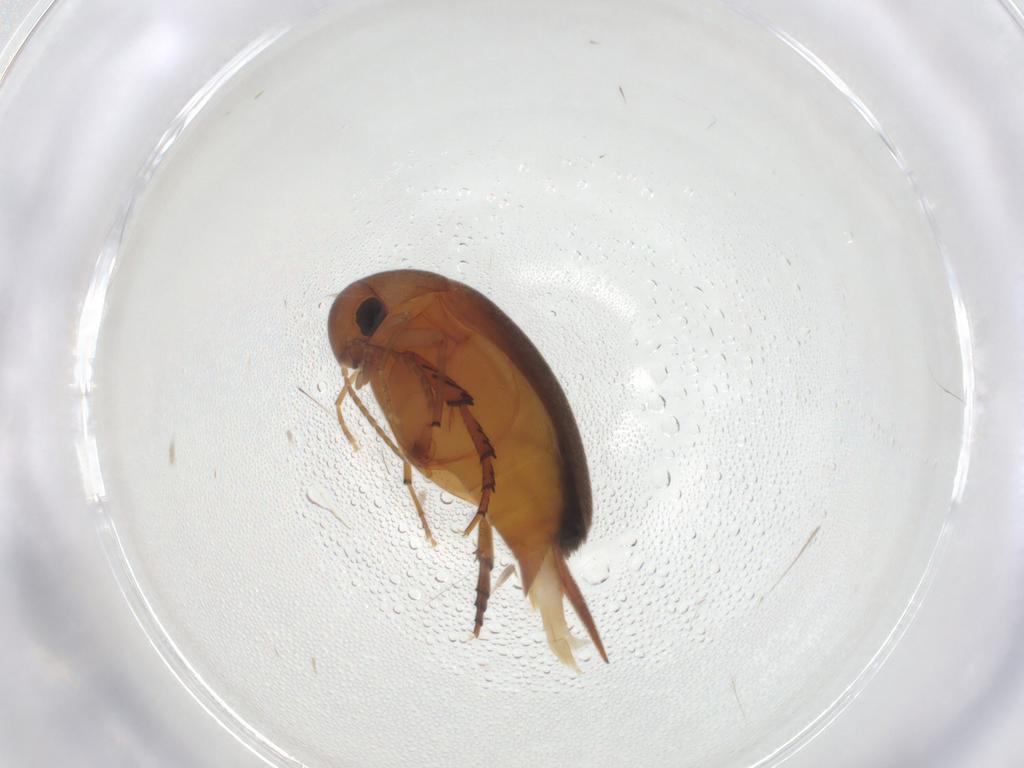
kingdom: Animalia
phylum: Arthropoda
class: Insecta
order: Coleoptera
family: Mordellidae
